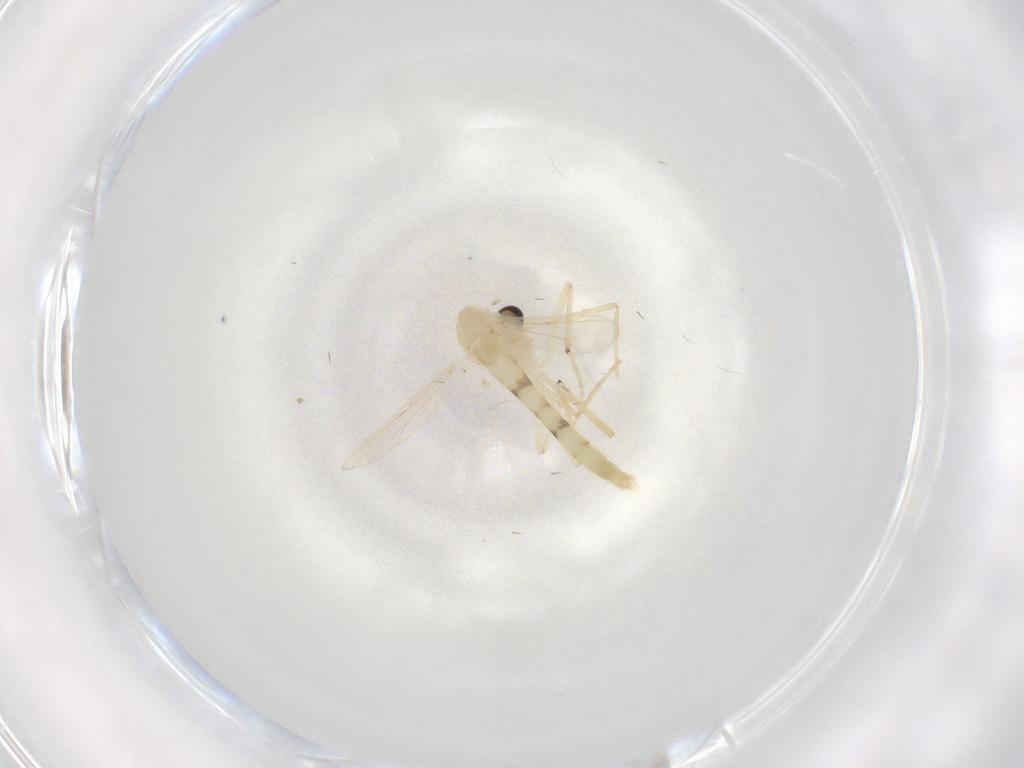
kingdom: Animalia
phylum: Arthropoda
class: Insecta
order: Diptera
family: Chironomidae
